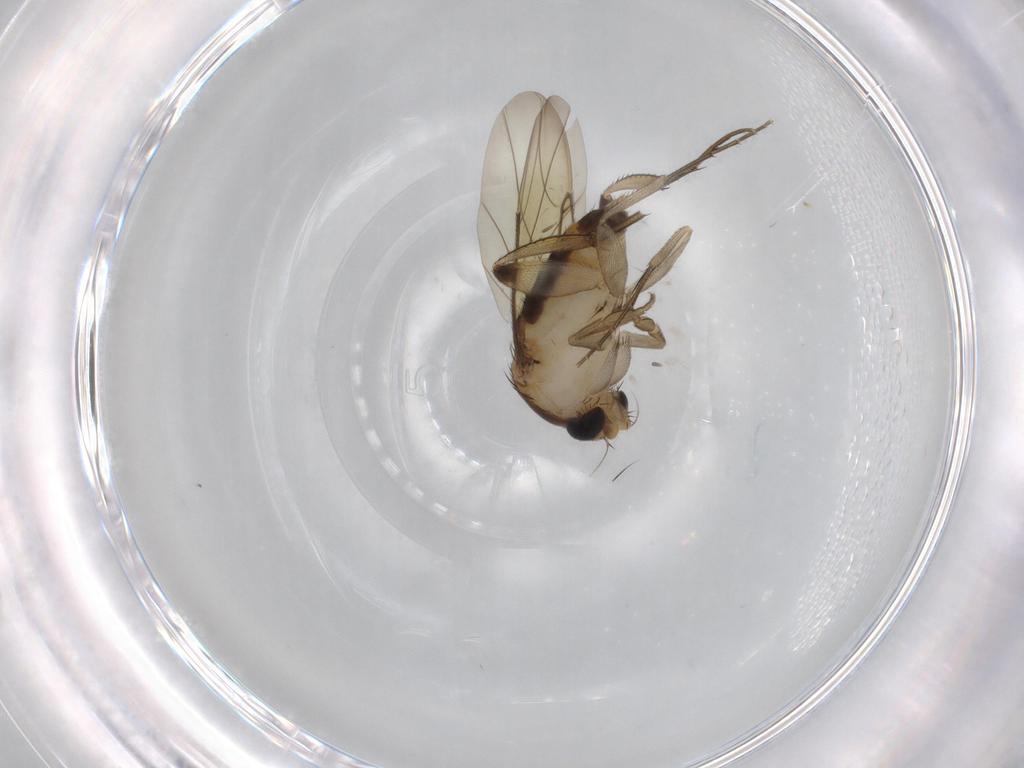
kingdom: Animalia
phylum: Arthropoda
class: Insecta
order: Diptera
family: Phoridae
